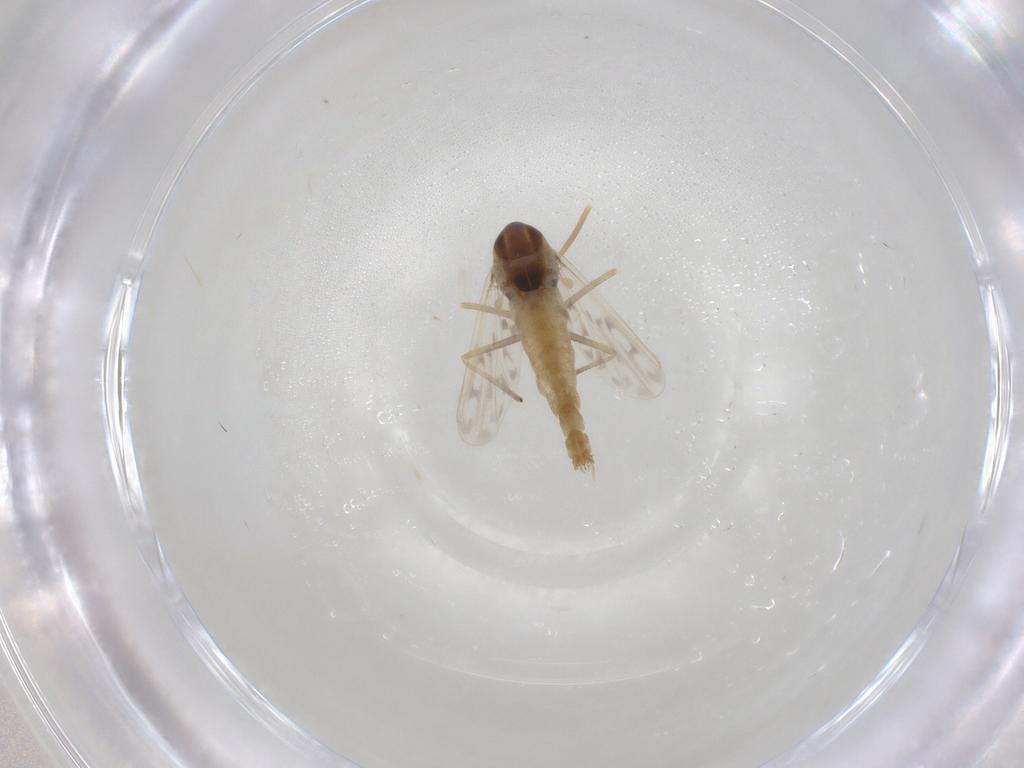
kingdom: Animalia
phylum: Arthropoda
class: Insecta
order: Diptera
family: Chironomidae
